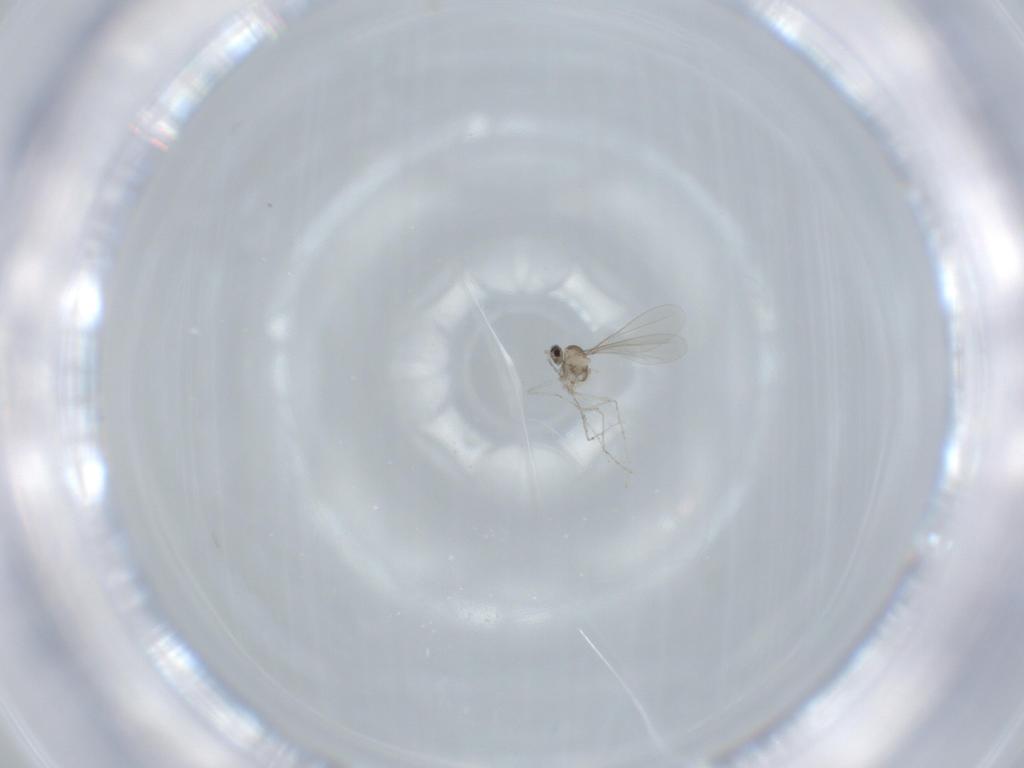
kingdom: Animalia
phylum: Arthropoda
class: Insecta
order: Diptera
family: Cecidomyiidae
